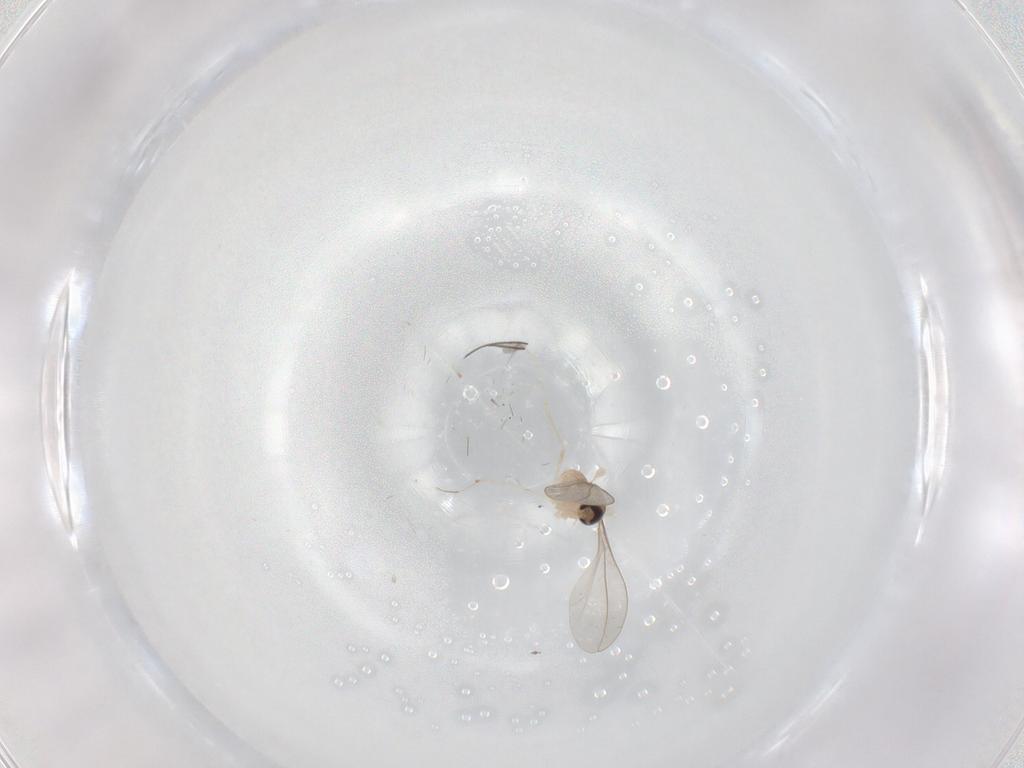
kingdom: Animalia
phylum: Arthropoda
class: Insecta
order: Diptera
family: Cecidomyiidae
